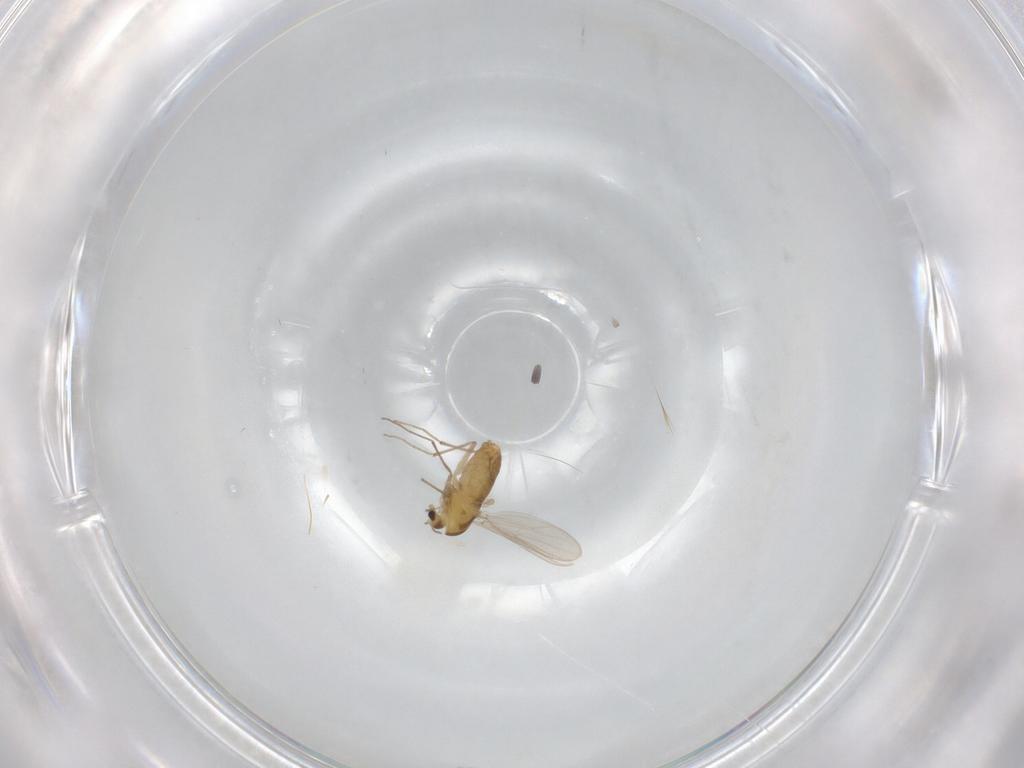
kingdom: Animalia
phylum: Arthropoda
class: Insecta
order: Diptera
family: Chironomidae
